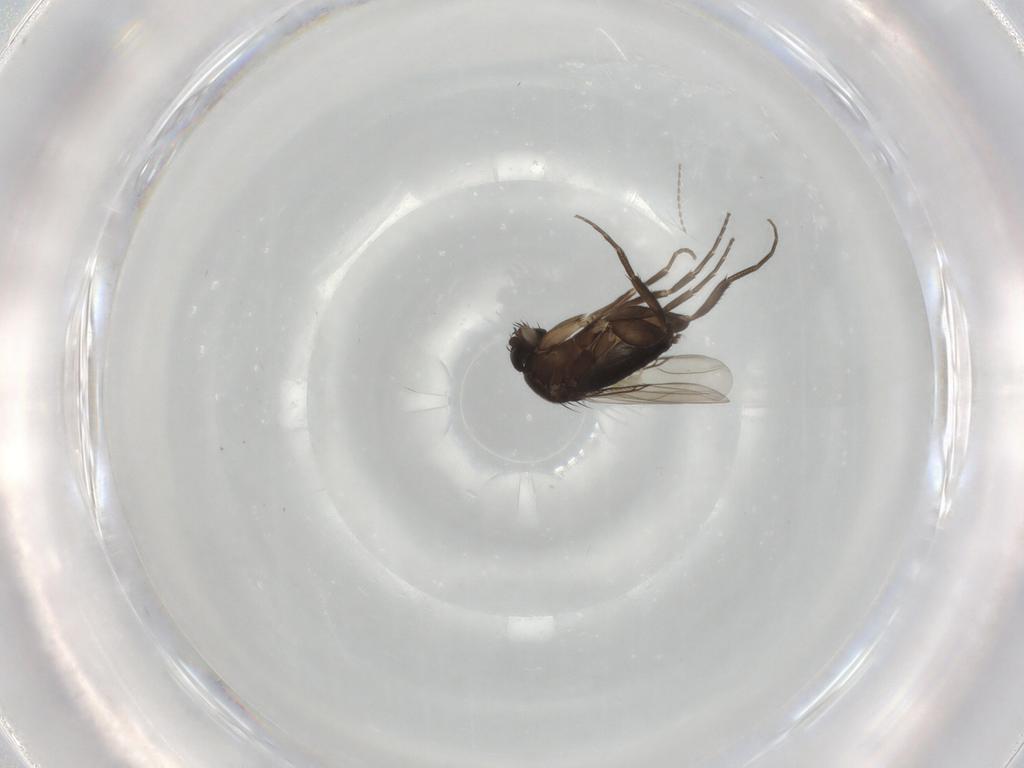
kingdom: Animalia
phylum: Arthropoda
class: Insecta
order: Diptera
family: Phoridae
